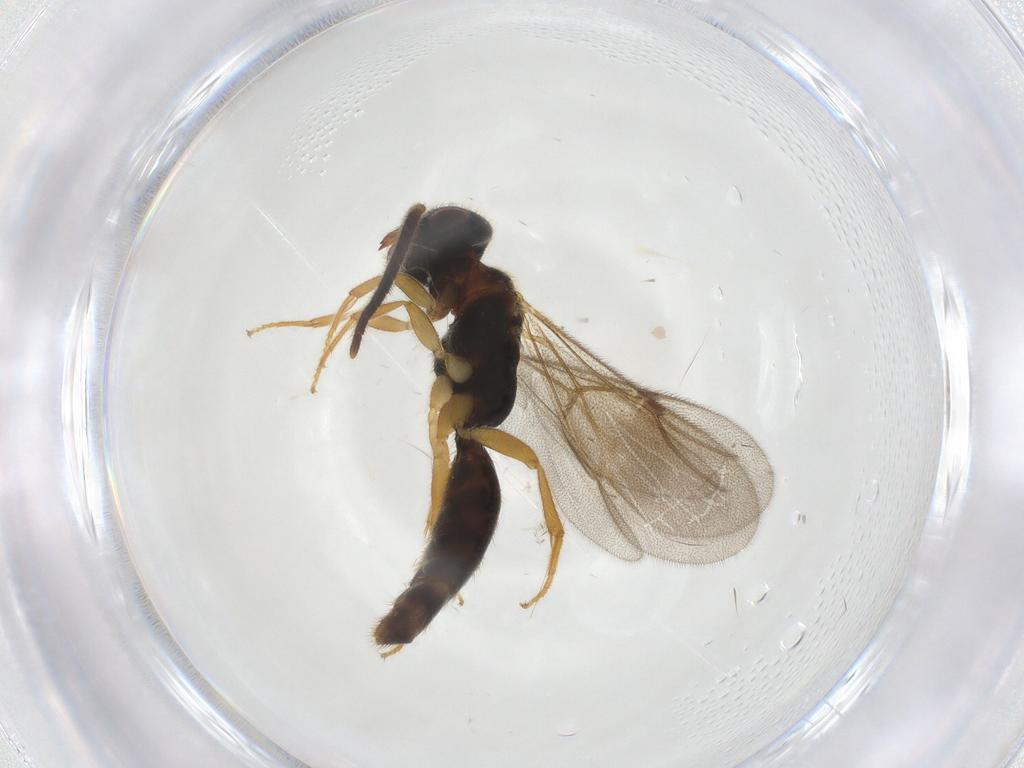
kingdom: Animalia
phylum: Arthropoda
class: Insecta
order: Hymenoptera
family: Bethylidae
